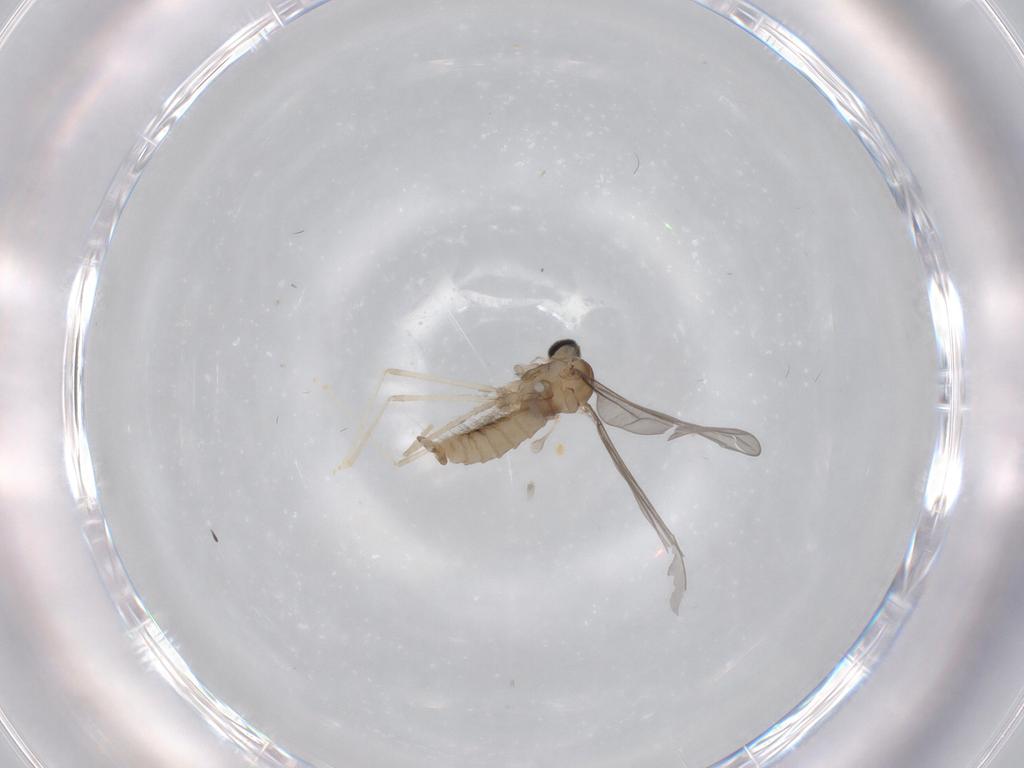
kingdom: Animalia
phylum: Arthropoda
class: Insecta
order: Diptera
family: Cecidomyiidae
